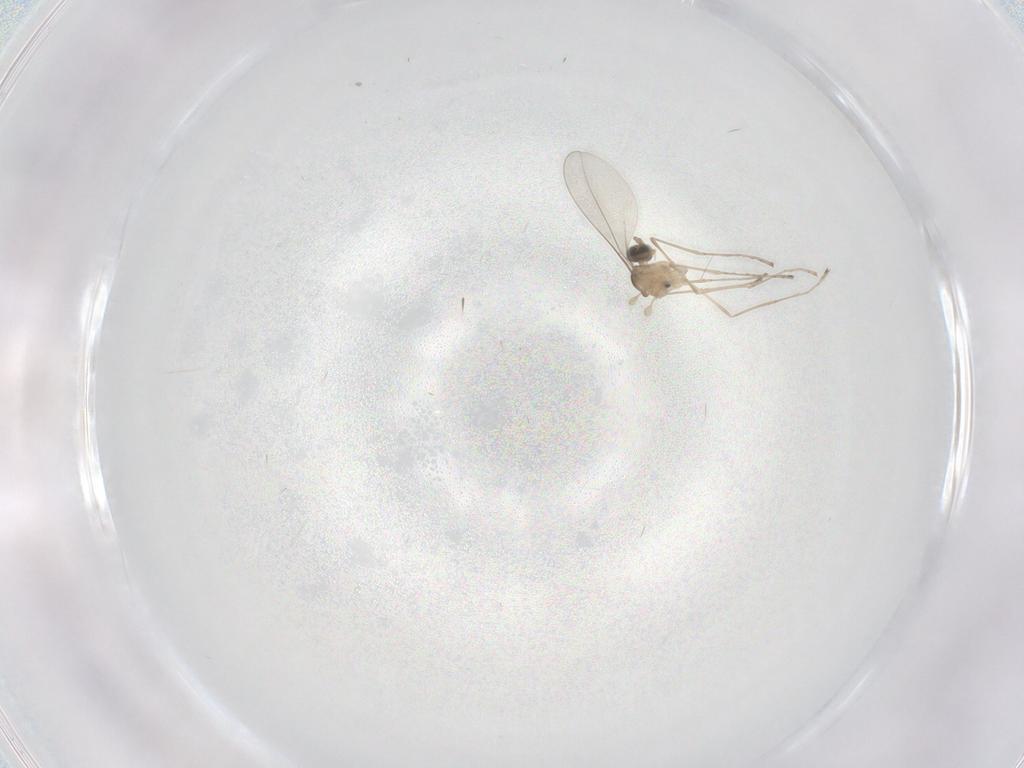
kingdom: Animalia
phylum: Arthropoda
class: Insecta
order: Diptera
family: Cecidomyiidae
